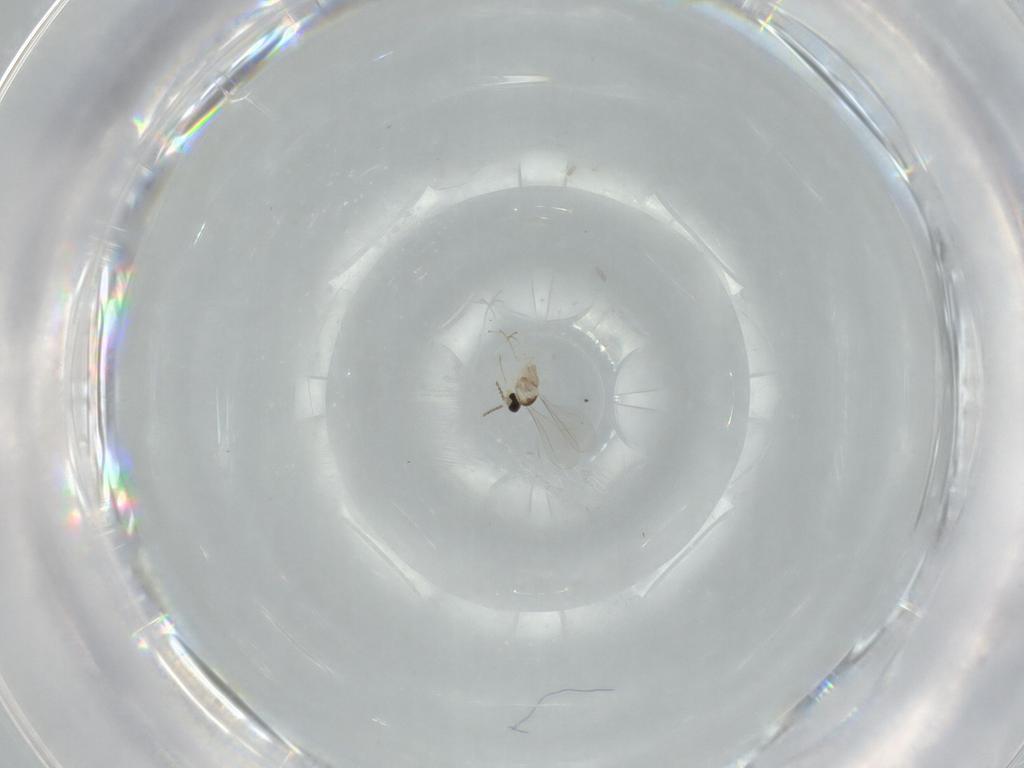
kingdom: Animalia
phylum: Arthropoda
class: Insecta
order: Diptera
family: Cecidomyiidae
